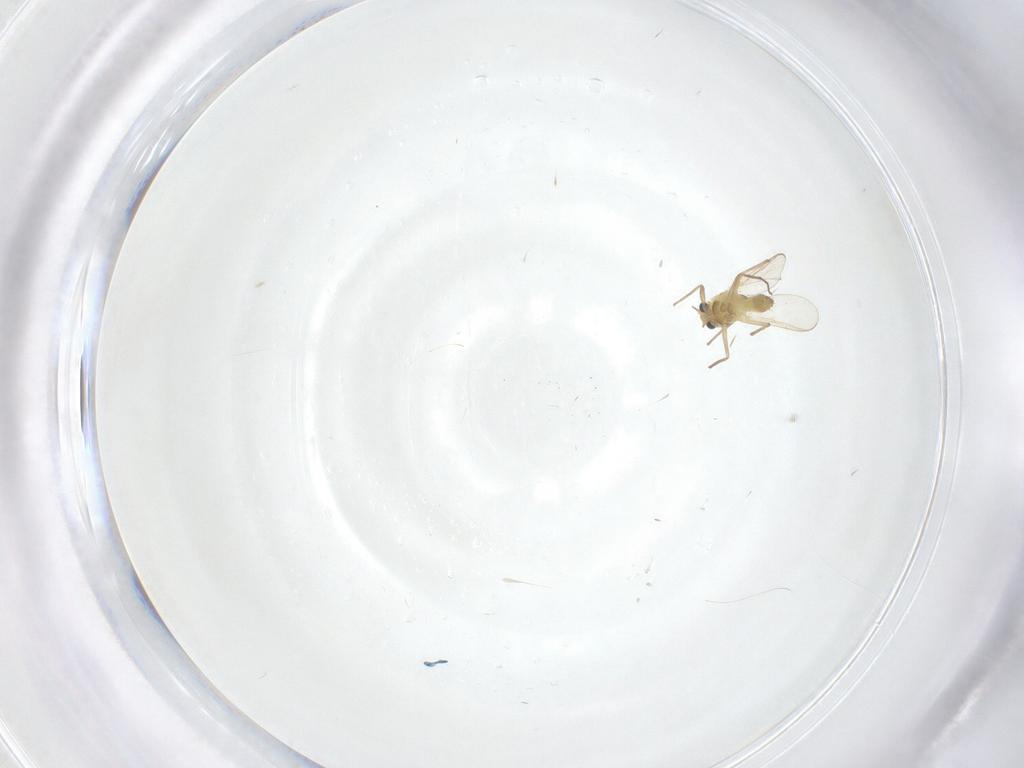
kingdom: Animalia
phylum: Arthropoda
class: Insecta
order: Diptera
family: Chironomidae
